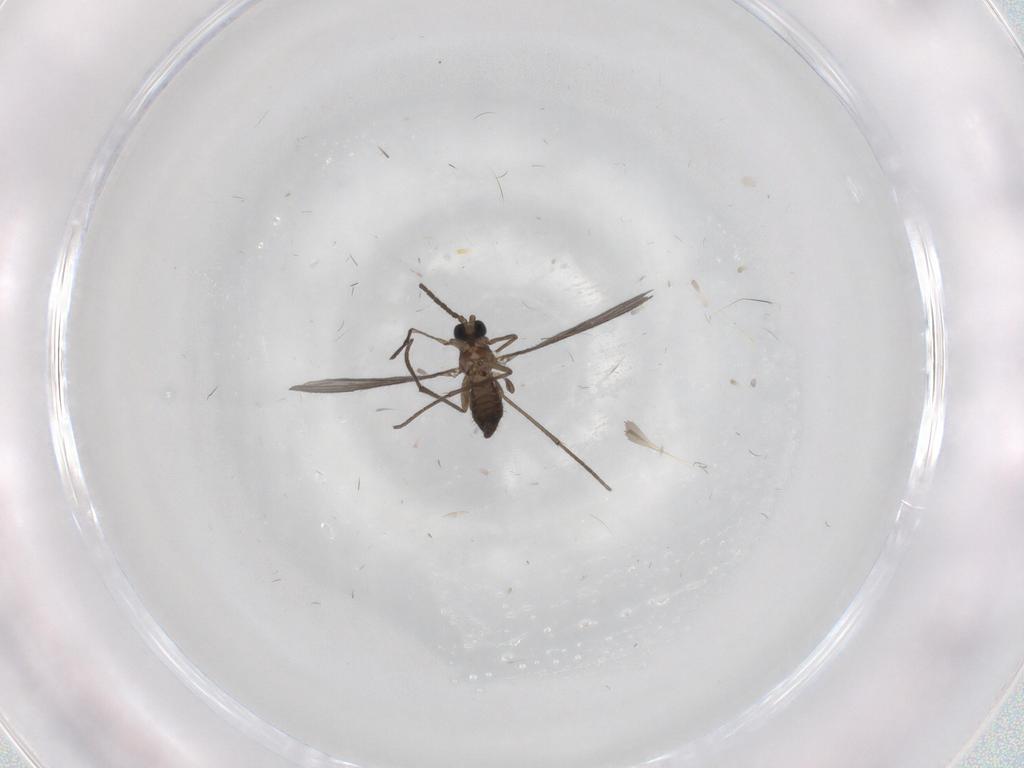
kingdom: Animalia
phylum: Arthropoda
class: Insecta
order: Diptera
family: Sciaridae
